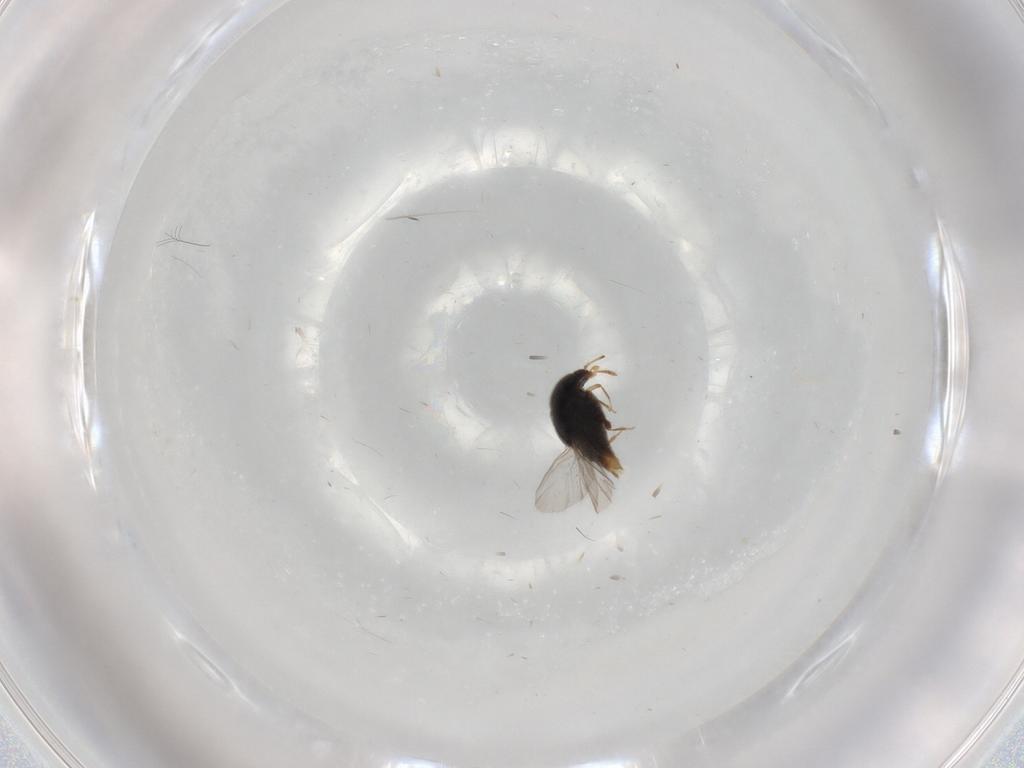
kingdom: Animalia
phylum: Arthropoda
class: Insecta
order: Coleoptera
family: Staphylinidae
